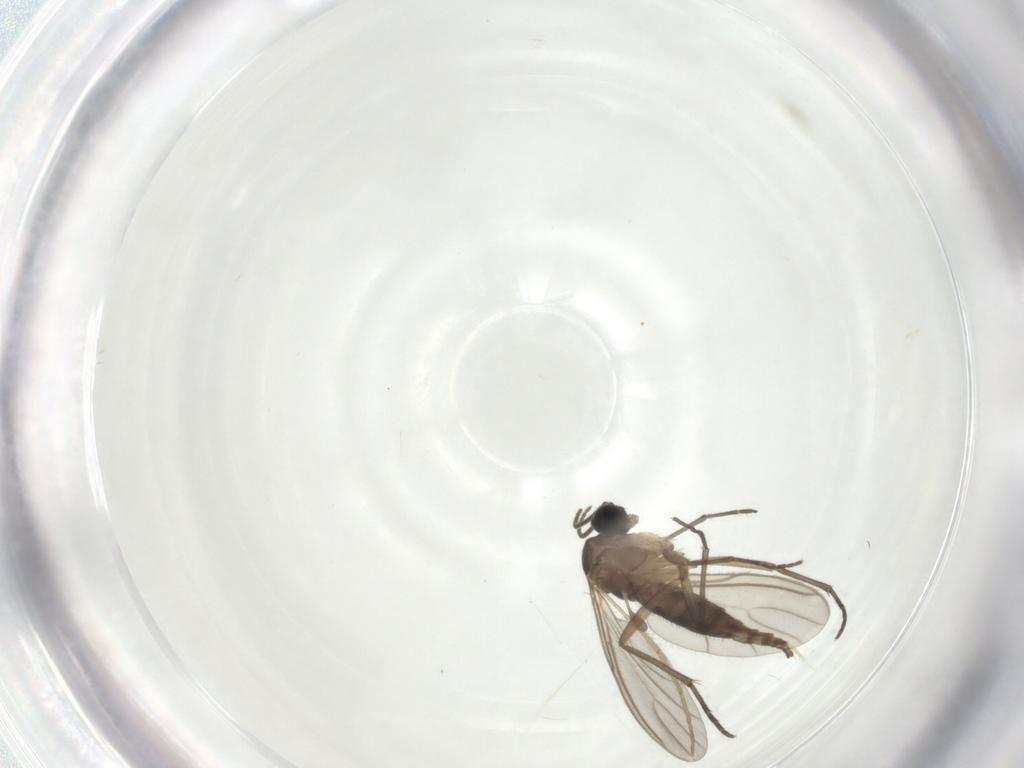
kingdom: Animalia
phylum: Arthropoda
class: Insecta
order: Diptera
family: Sciaridae
